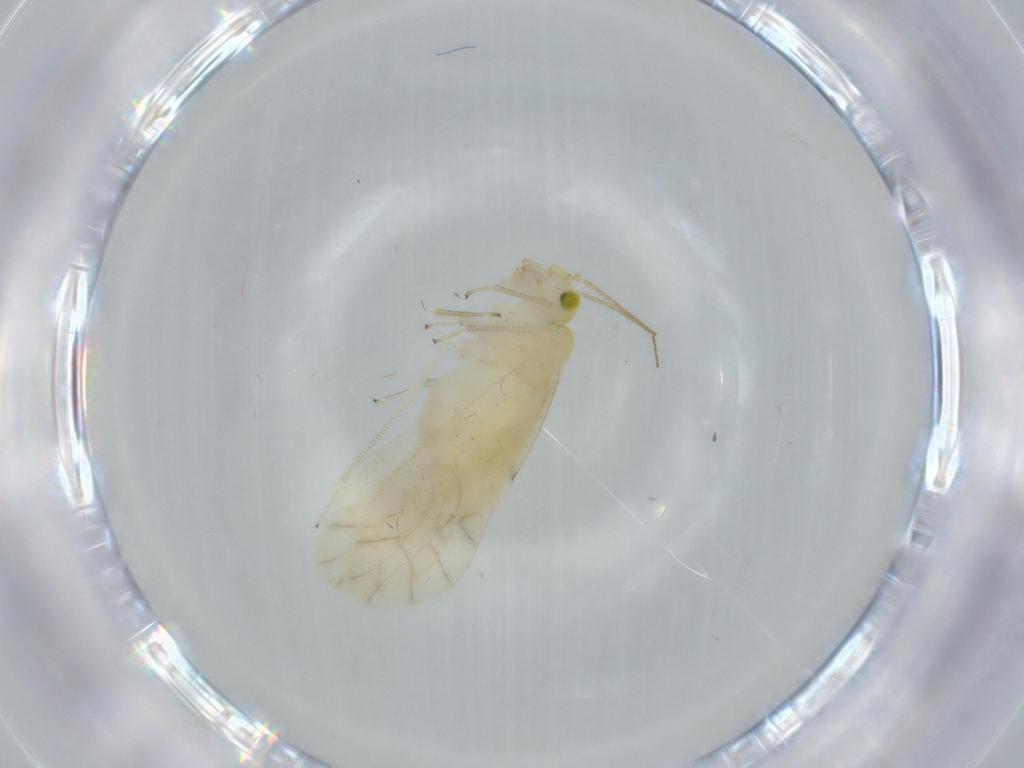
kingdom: Animalia
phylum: Arthropoda
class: Insecta
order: Psocodea
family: Caeciliusidae
